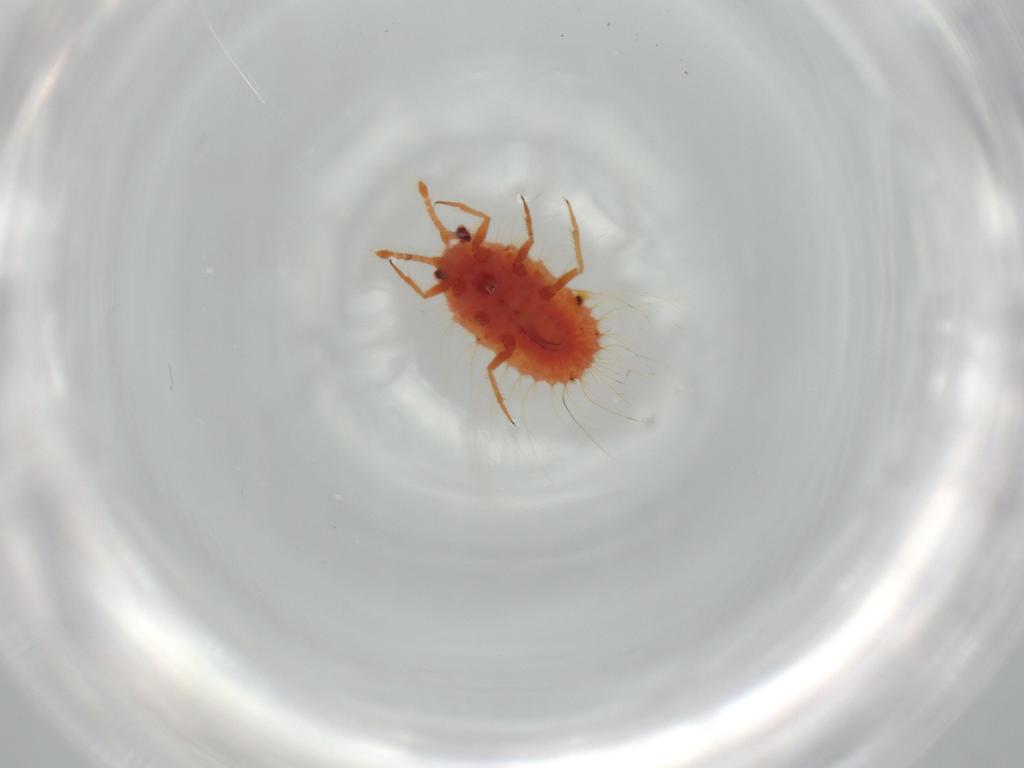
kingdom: Animalia
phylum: Arthropoda
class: Insecta
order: Hemiptera
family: Coccoidea_incertae_sedis
